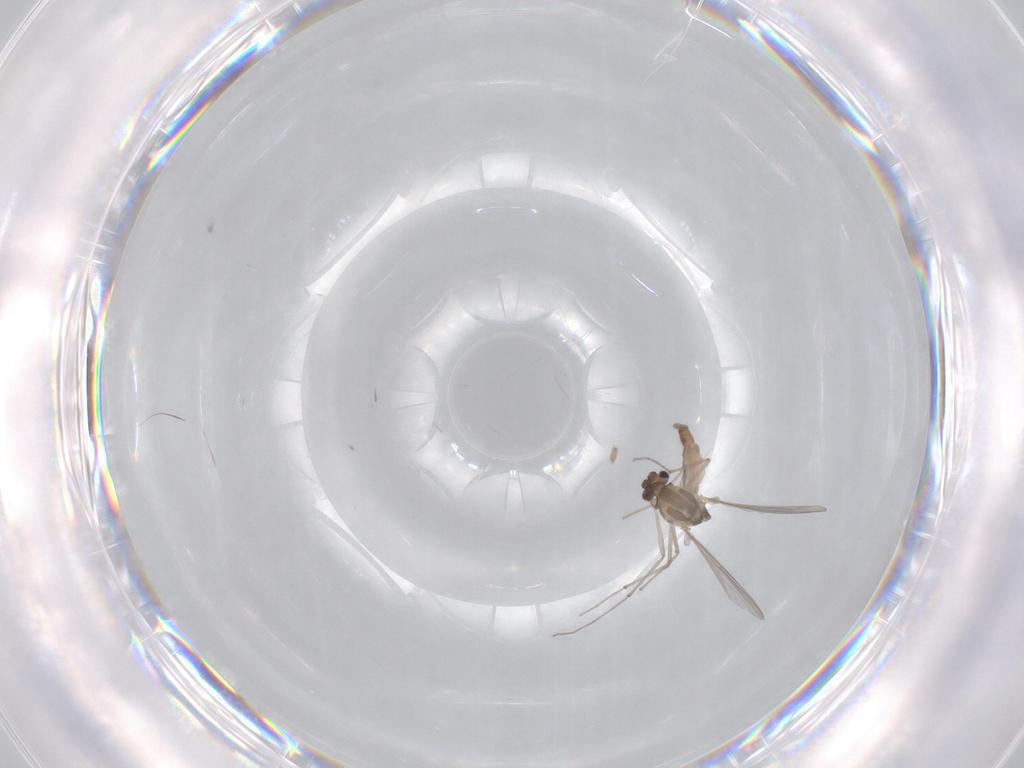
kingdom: Animalia
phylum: Arthropoda
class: Insecta
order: Diptera
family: Chironomidae
